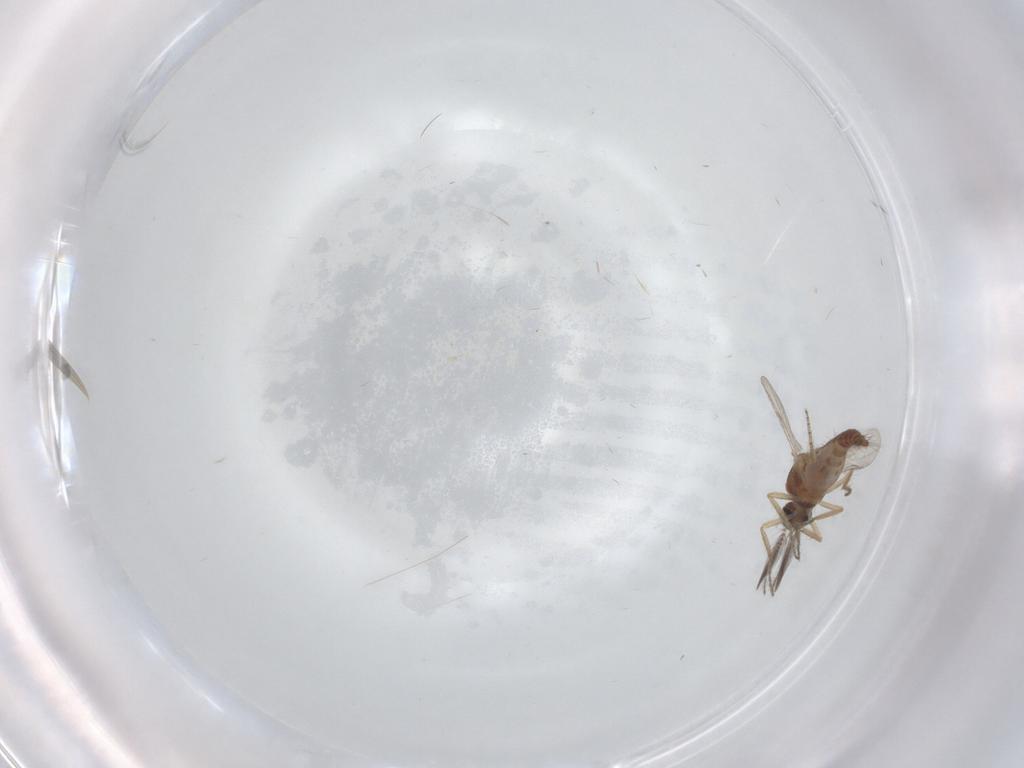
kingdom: Animalia
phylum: Arthropoda
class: Insecta
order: Diptera
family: Ceratopogonidae
